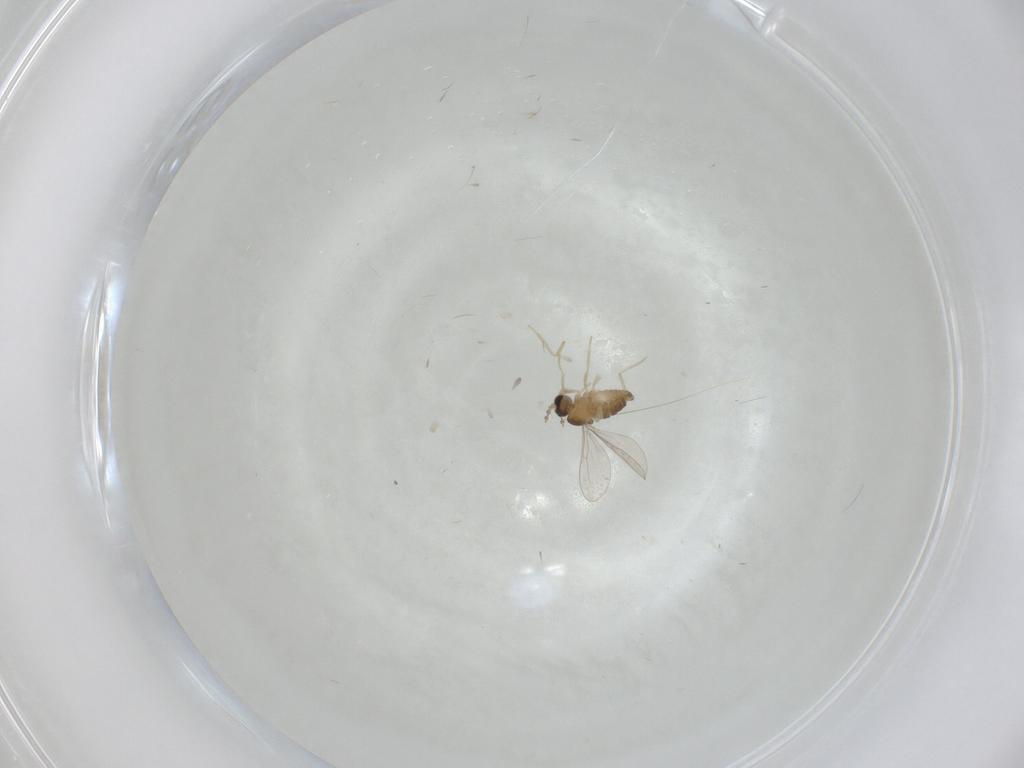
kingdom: Animalia
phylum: Arthropoda
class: Insecta
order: Diptera
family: Cecidomyiidae
